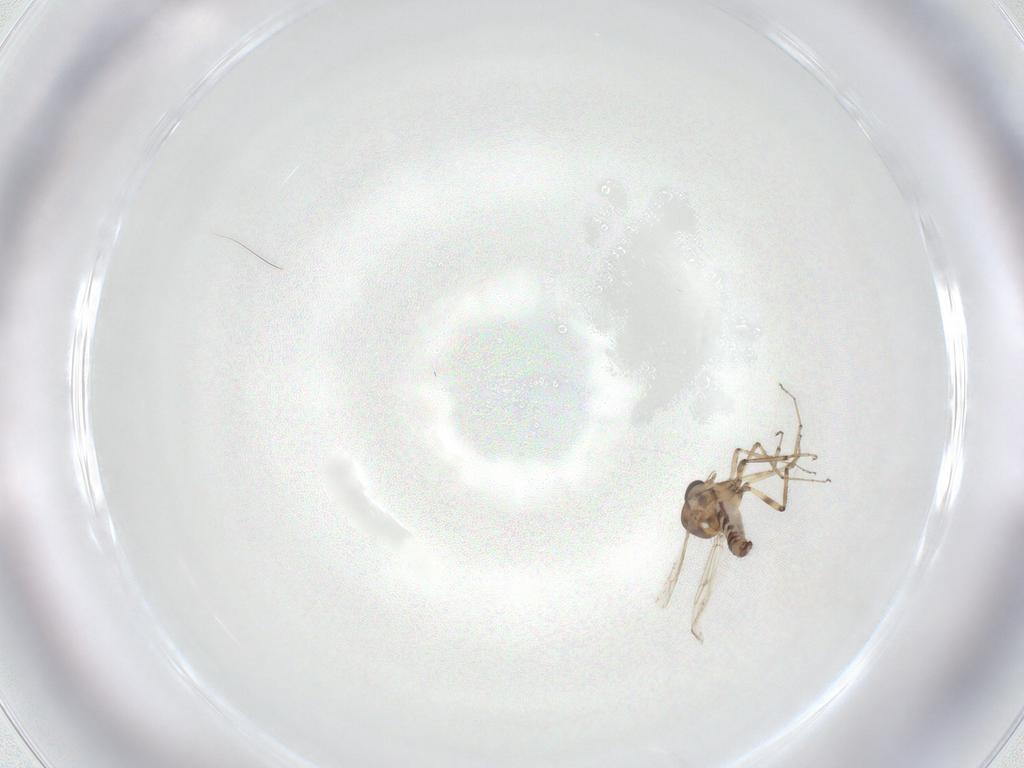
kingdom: Animalia
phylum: Arthropoda
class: Insecta
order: Diptera
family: Ceratopogonidae
